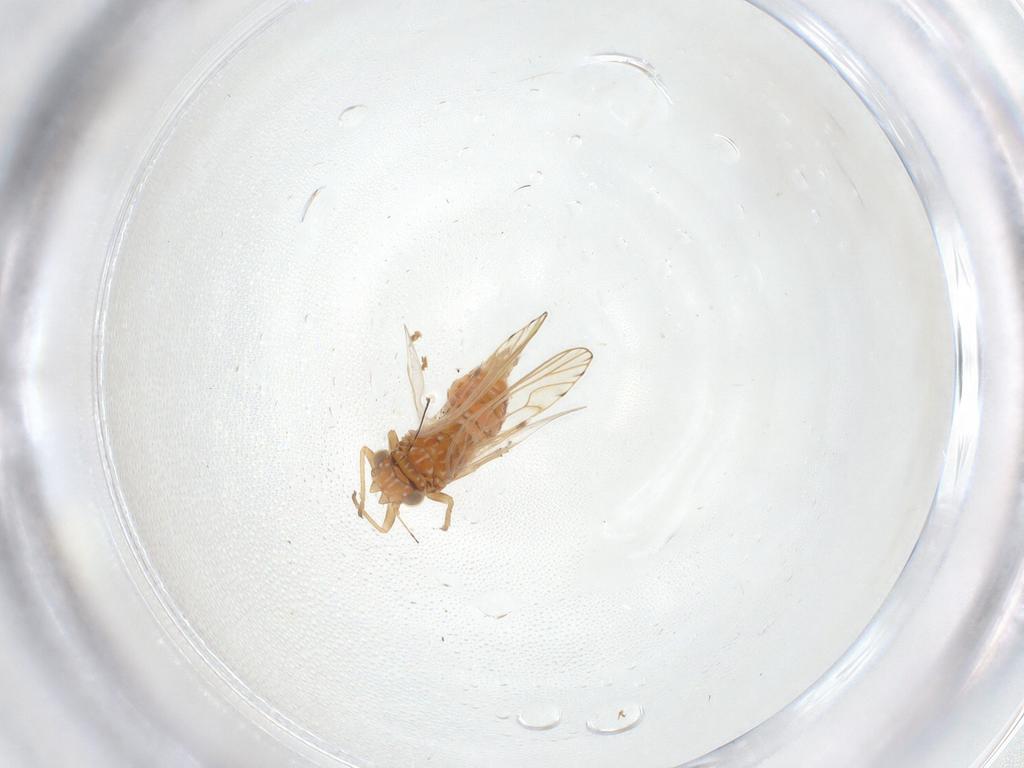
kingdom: Animalia
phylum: Arthropoda
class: Insecta
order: Hemiptera
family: Psylloidea_incertae_sedis
